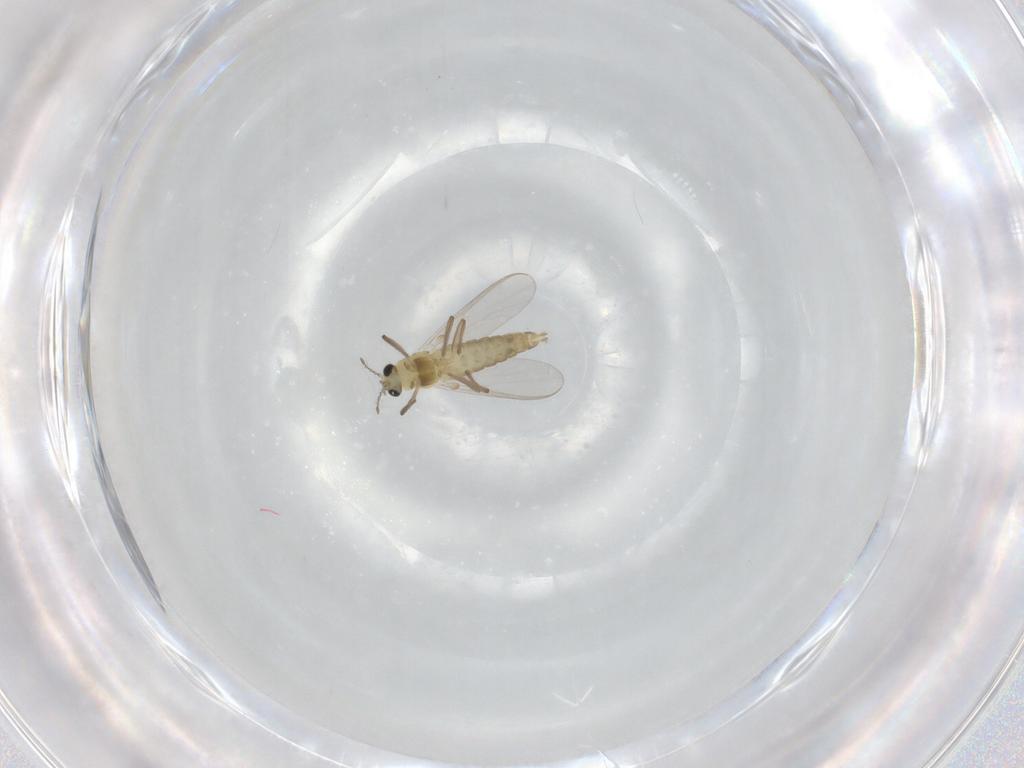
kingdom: Animalia
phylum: Arthropoda
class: Insecta
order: Diptera
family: Chironomidae
